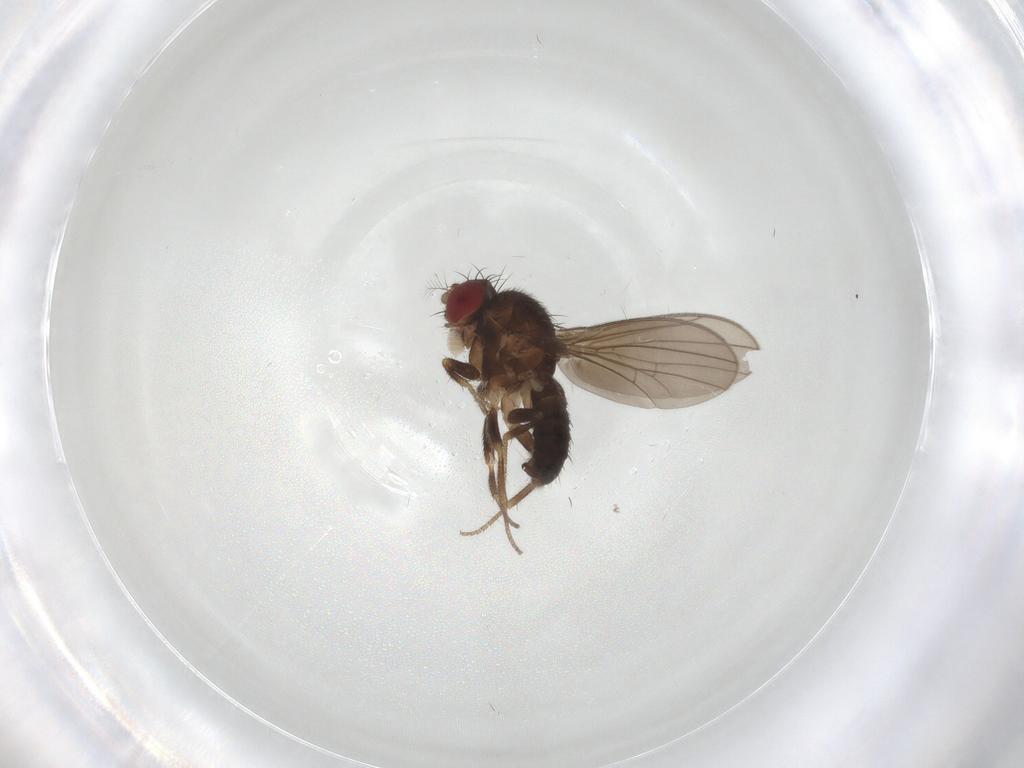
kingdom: Animalia
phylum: Arthropoda
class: Insecta
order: Diptera
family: Drosophilidae
